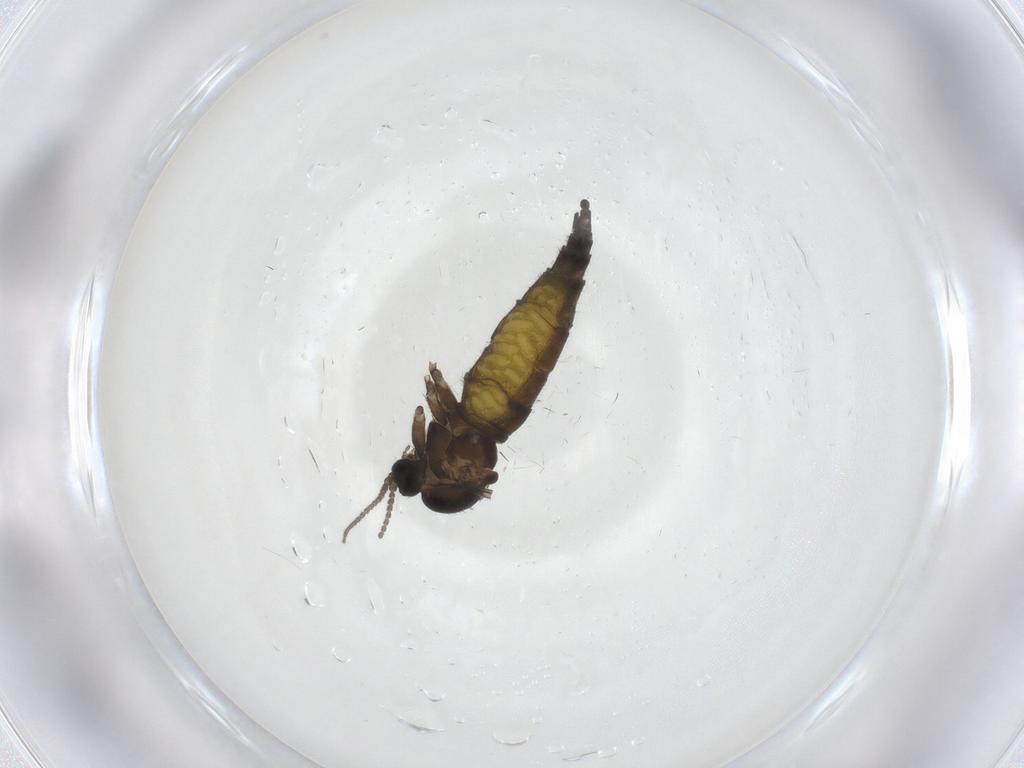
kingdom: Animalia
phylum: Arthropoda
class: Insecta
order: Diptera
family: Sciaridae
